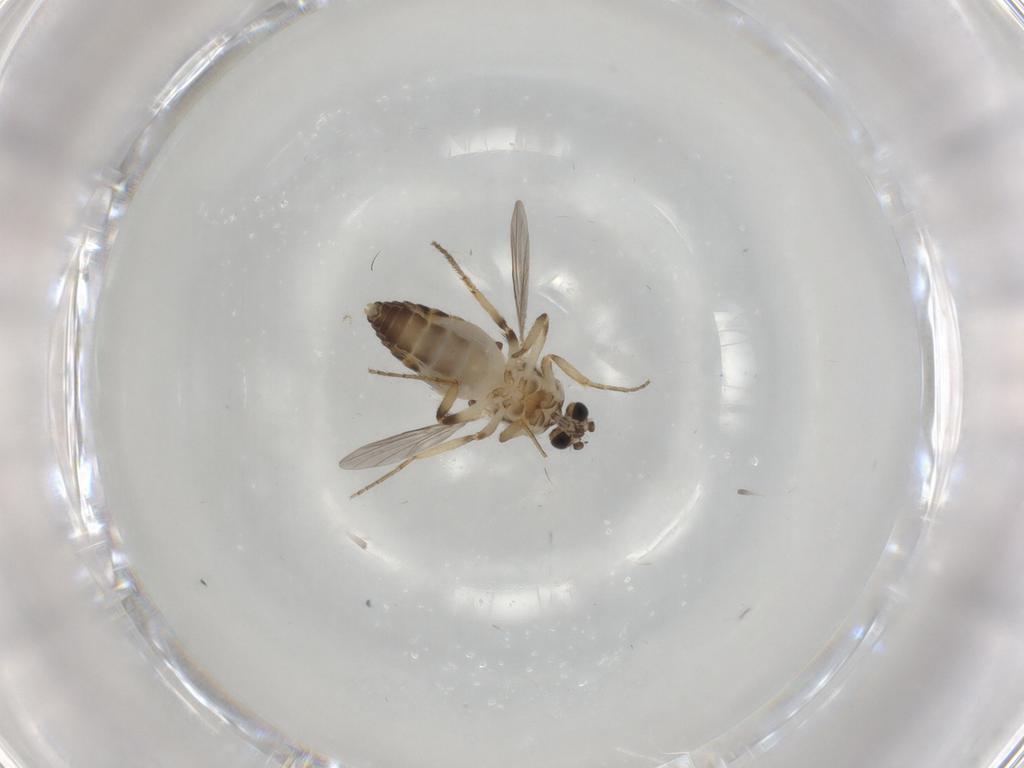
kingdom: Animalia
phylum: Arthropoda
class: Insecta
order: Diptera
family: Ceratopogonidae
